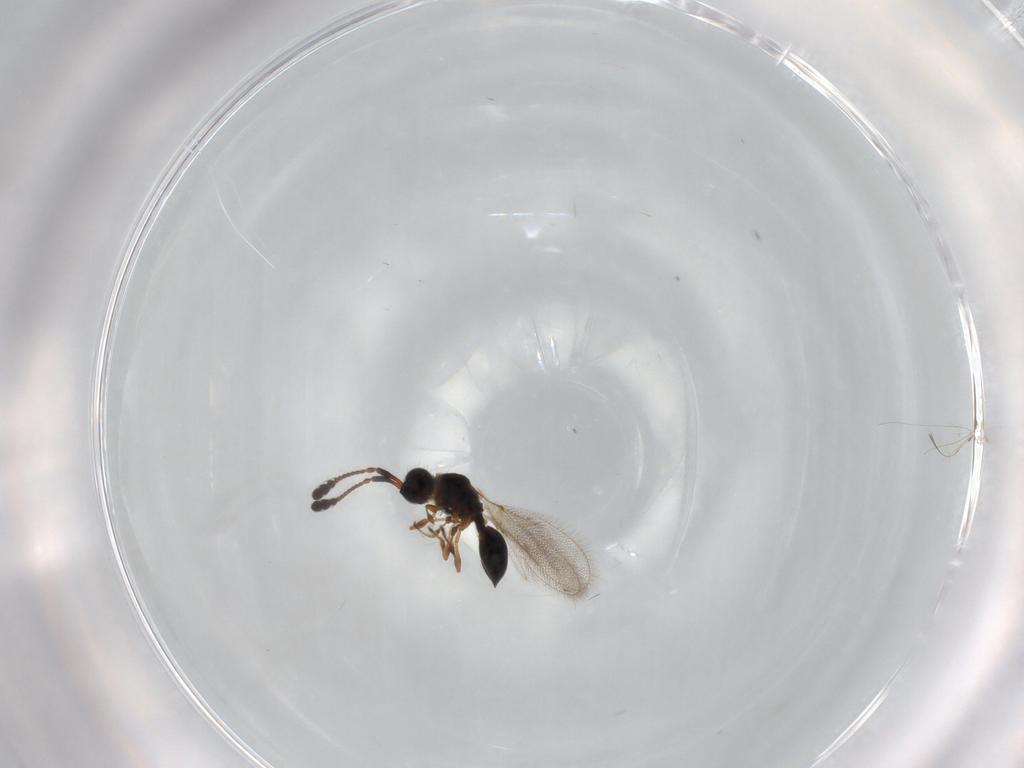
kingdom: Animalia
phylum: Arthropoda
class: Insecta
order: Hymenoptera
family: Diapriidae
